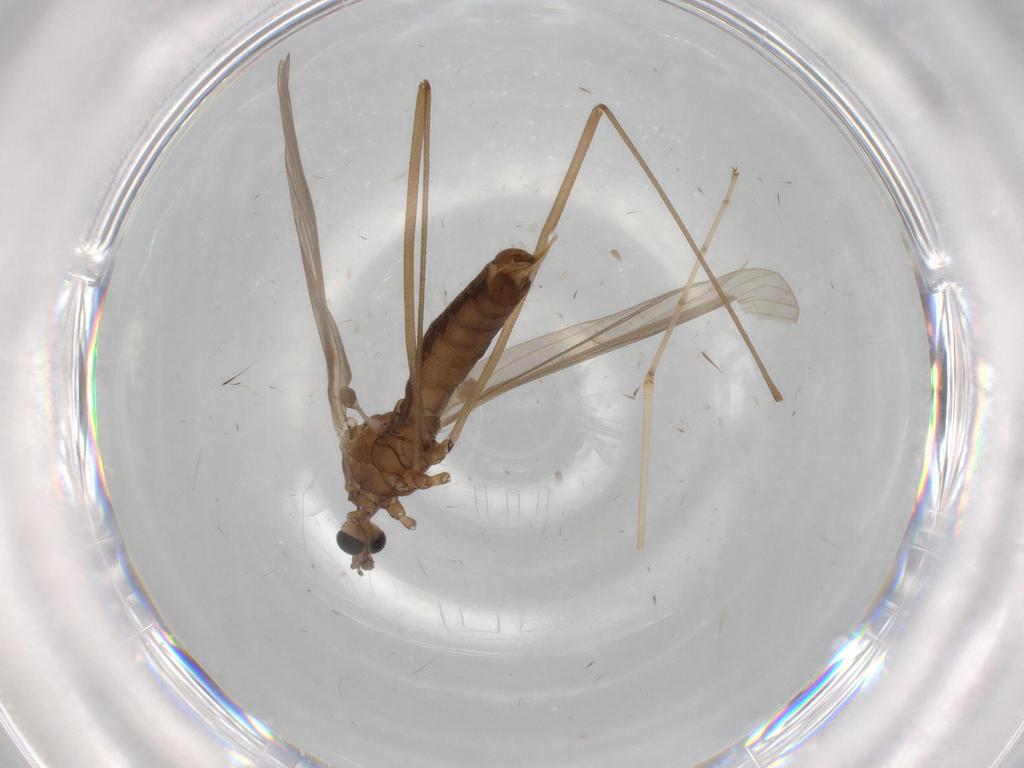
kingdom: Animalia
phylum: Arthropoda
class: Insecta
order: Diptera
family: Limoniidae
